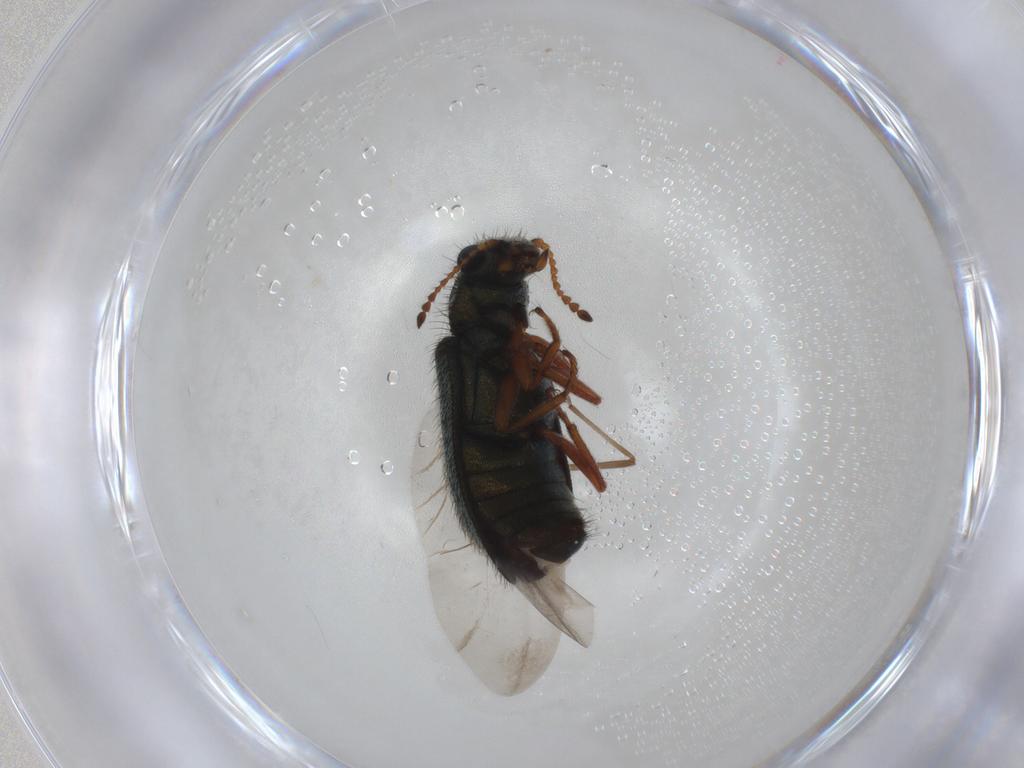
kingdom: Animalia
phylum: Arthropoda
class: Insecta
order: Coleoptera
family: Melyridae
